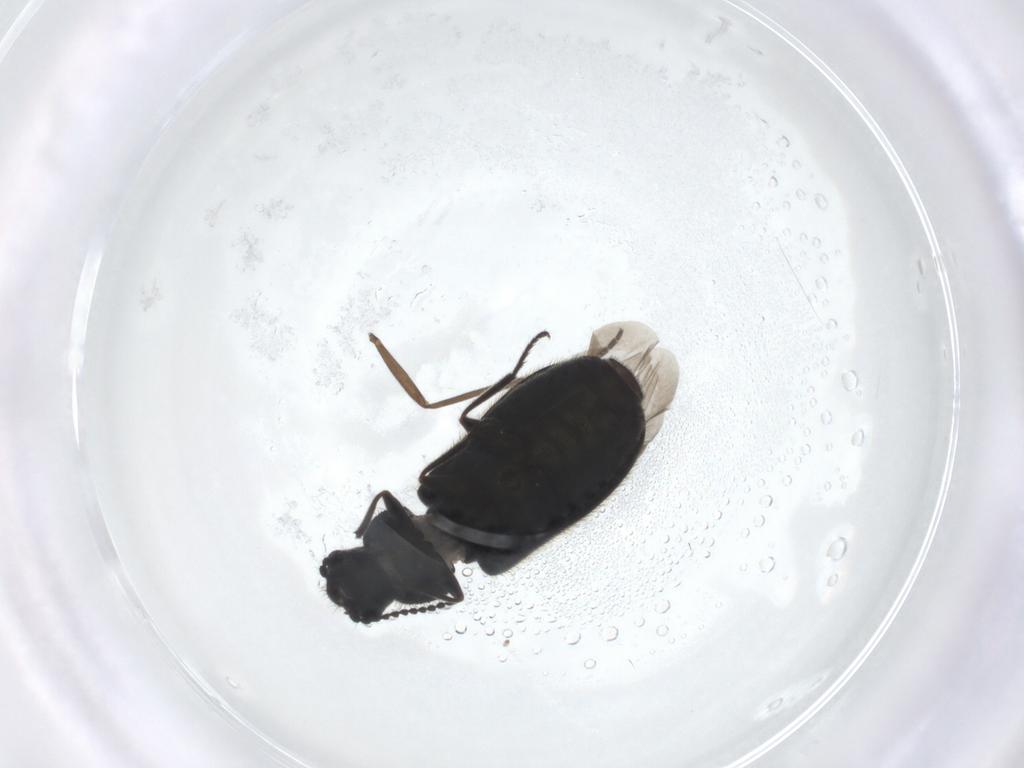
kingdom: Animalia
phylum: Arthropoda
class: Insecta
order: Coleoptera
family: Melyridae
